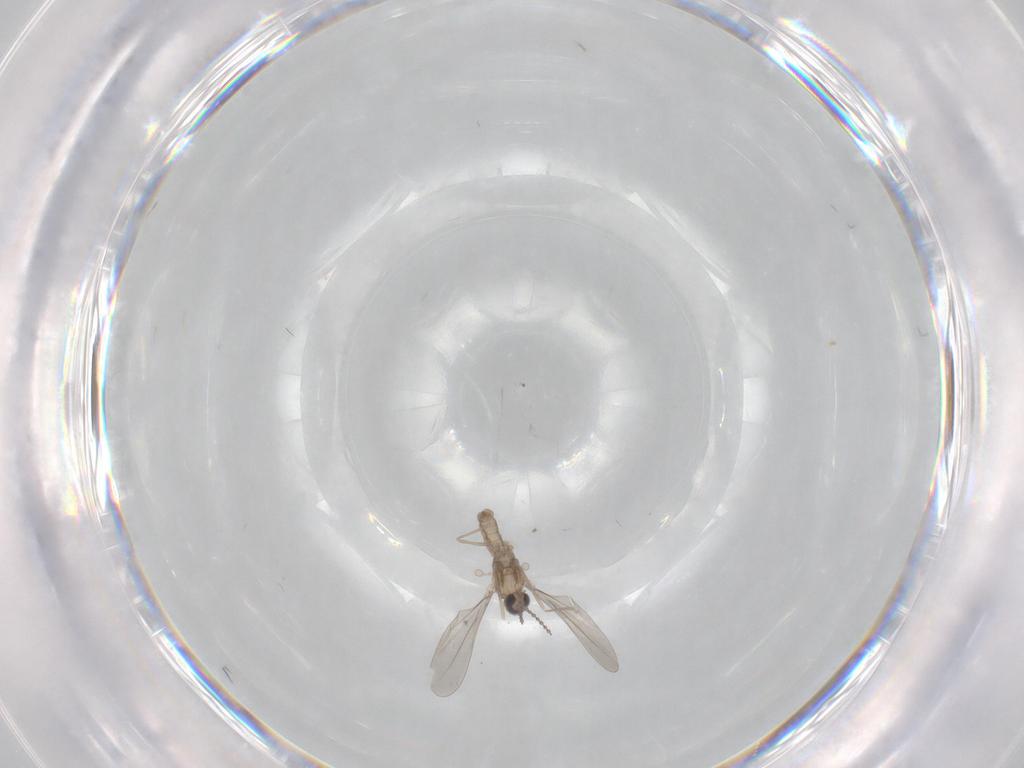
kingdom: Animalia
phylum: Arthropoda
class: Insecta
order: Diptera
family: Cecidomyiidae
